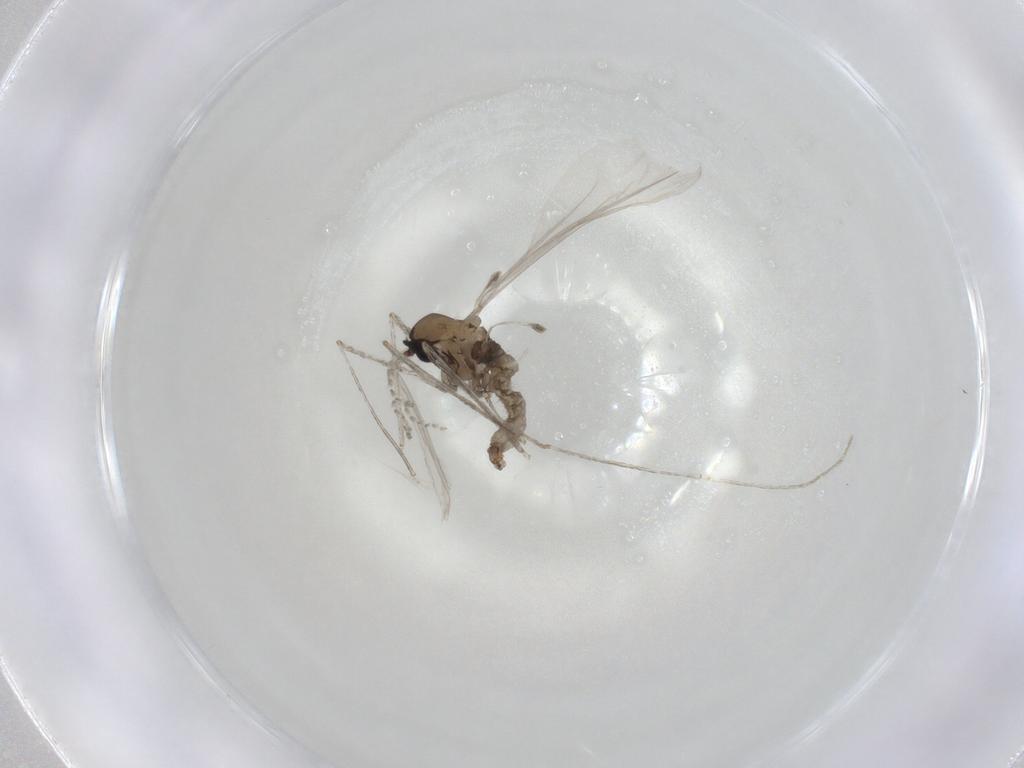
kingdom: Animalia
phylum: Arthropoda
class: Insecta
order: Diptera
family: Cecidomyiidae
